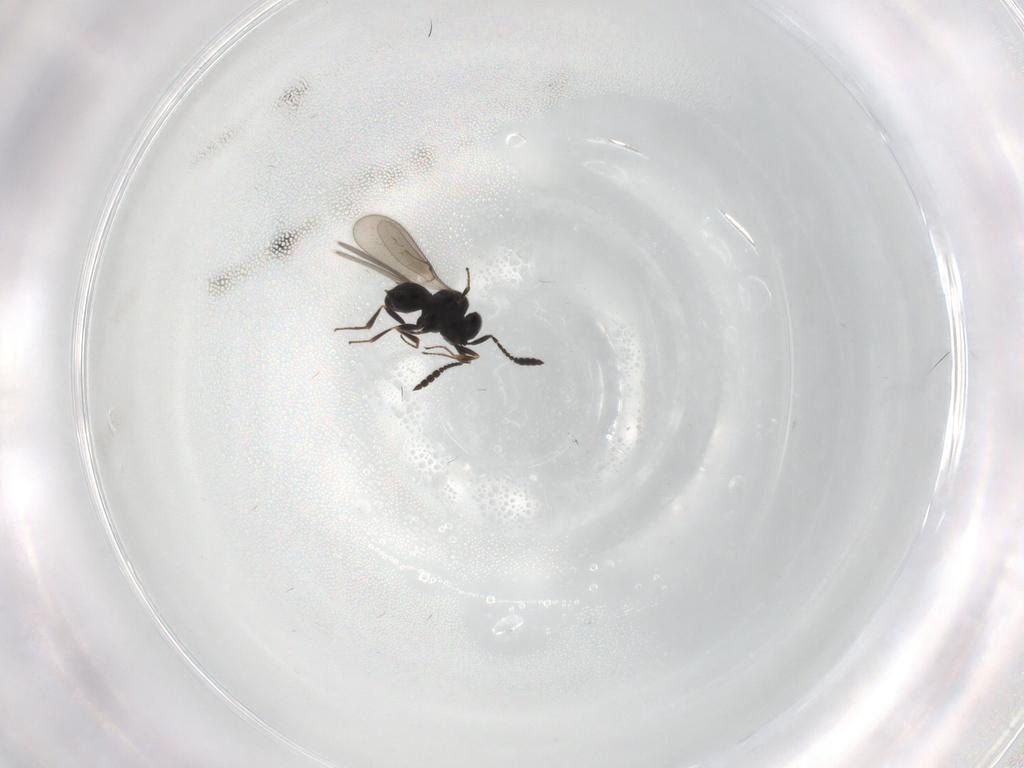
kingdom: Animalia
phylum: Arthropoda
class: Insecta
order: Hymenoptera
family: Scelionidae
